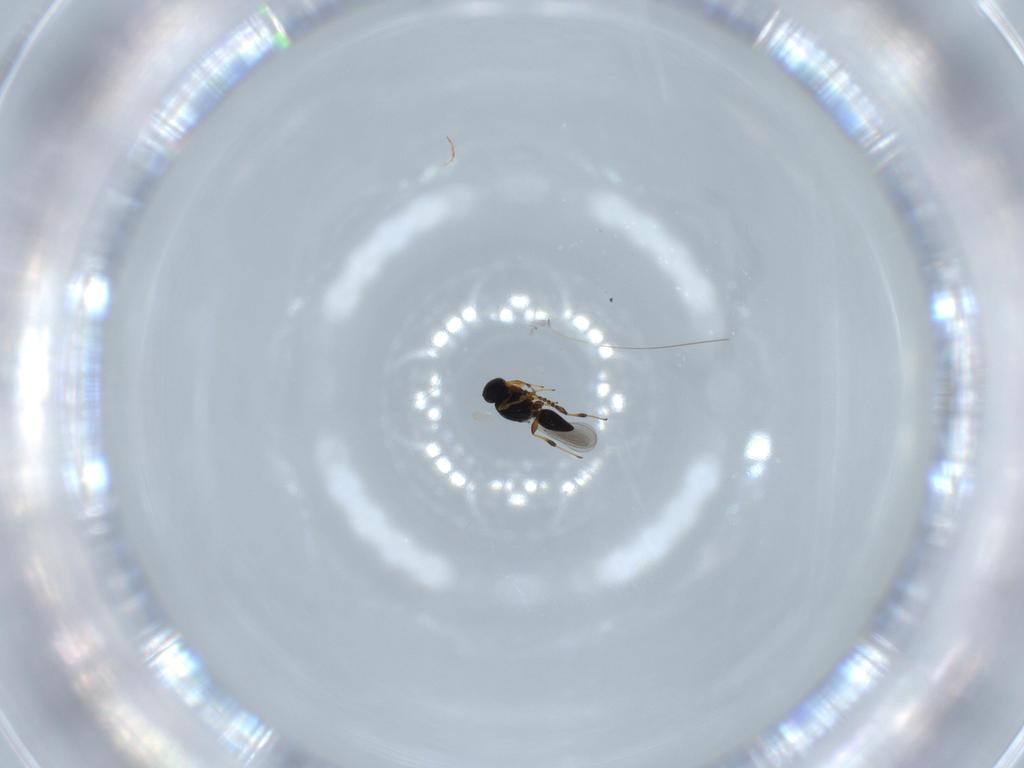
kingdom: Animalia
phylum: Arthropoda
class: Insecta
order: Hymenoptera
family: Platygastridae
